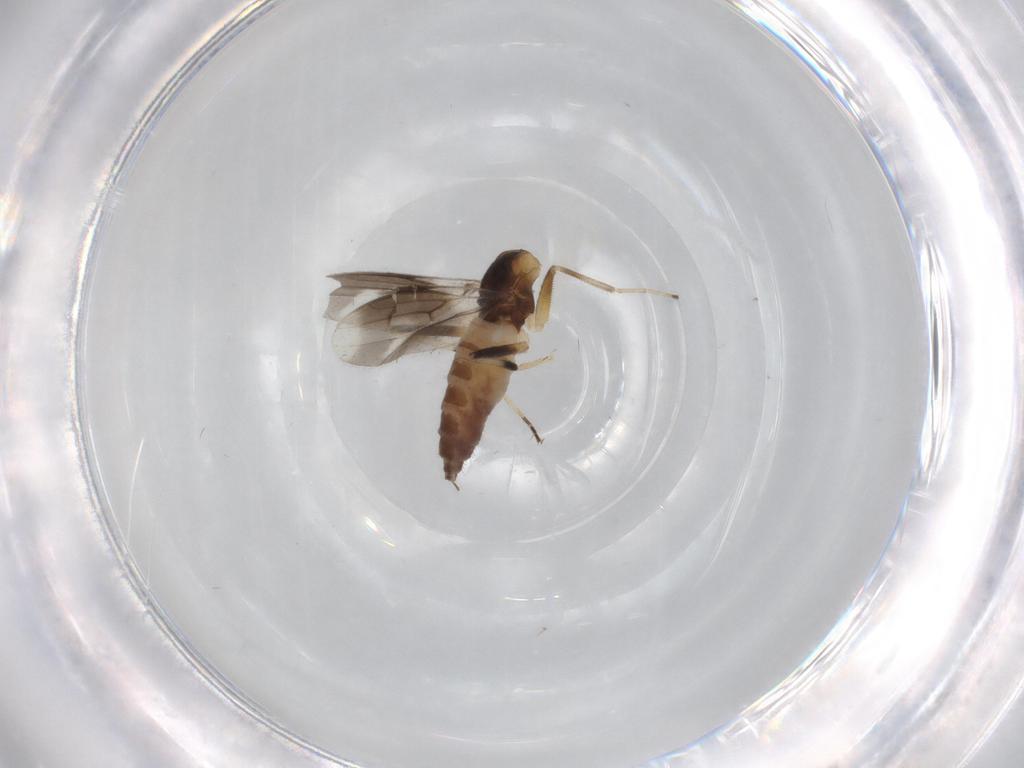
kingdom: Animalia
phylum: Arthropoda
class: Insecta
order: Diptera
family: Hybotidae
